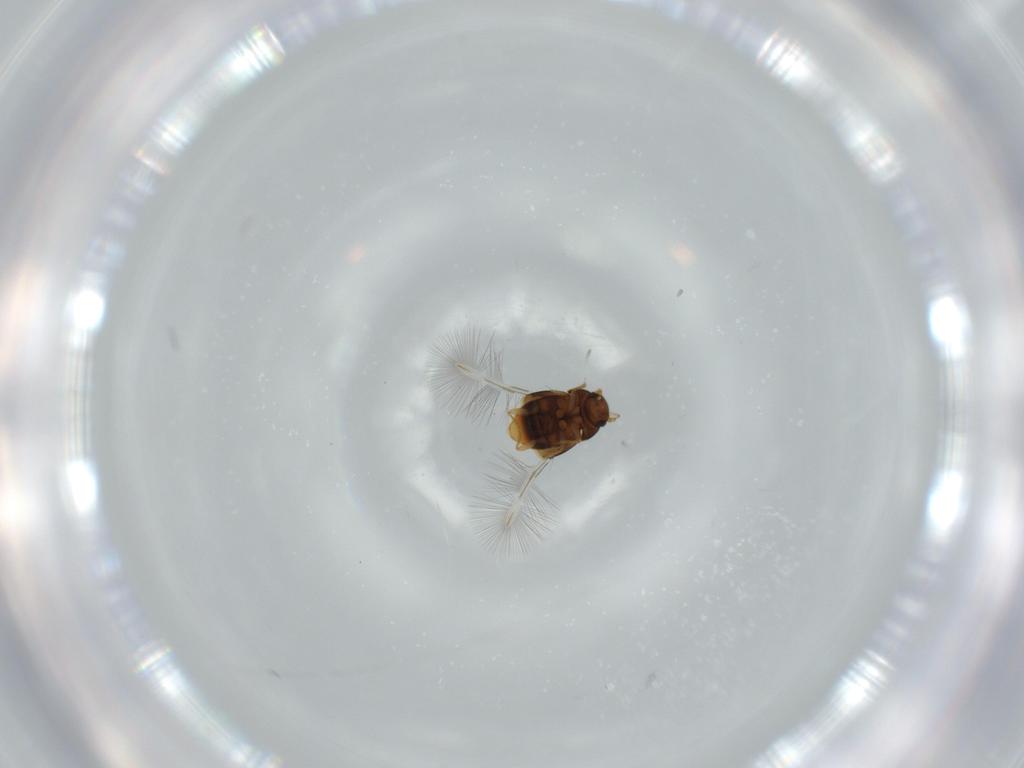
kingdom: Animalia
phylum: Arthropoda
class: Insecta
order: Coleoptera
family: Ptiliidae
